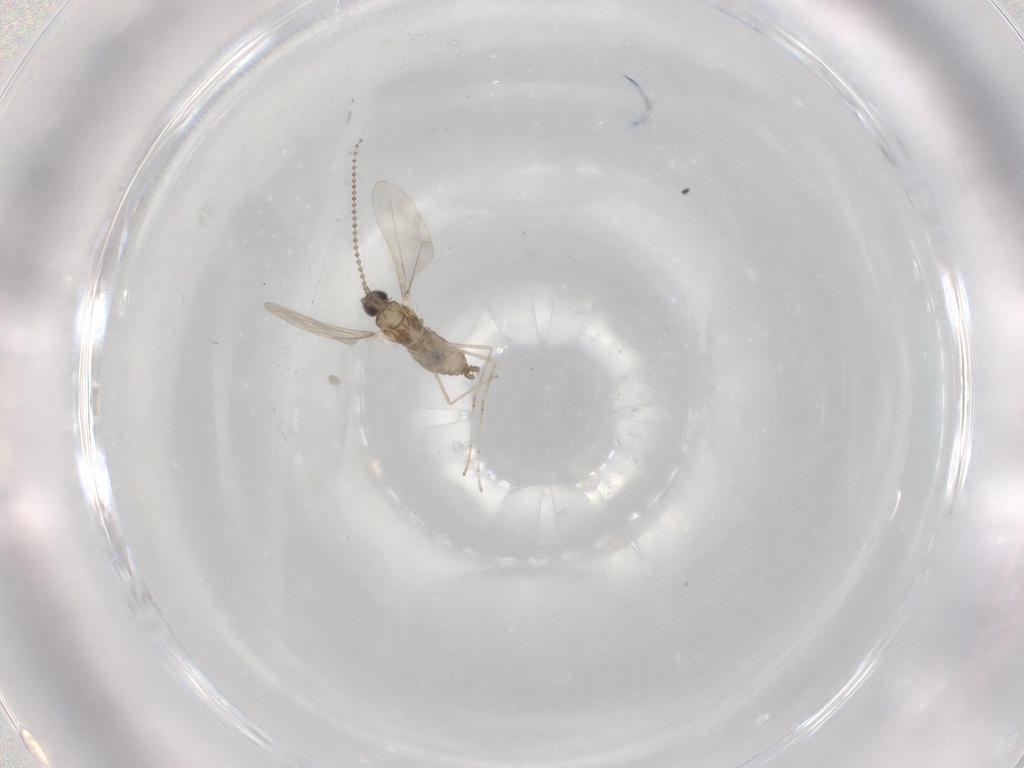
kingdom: Animalia
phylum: Arthropoda
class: Insecta
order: Diptera
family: Cecidomyiidae
